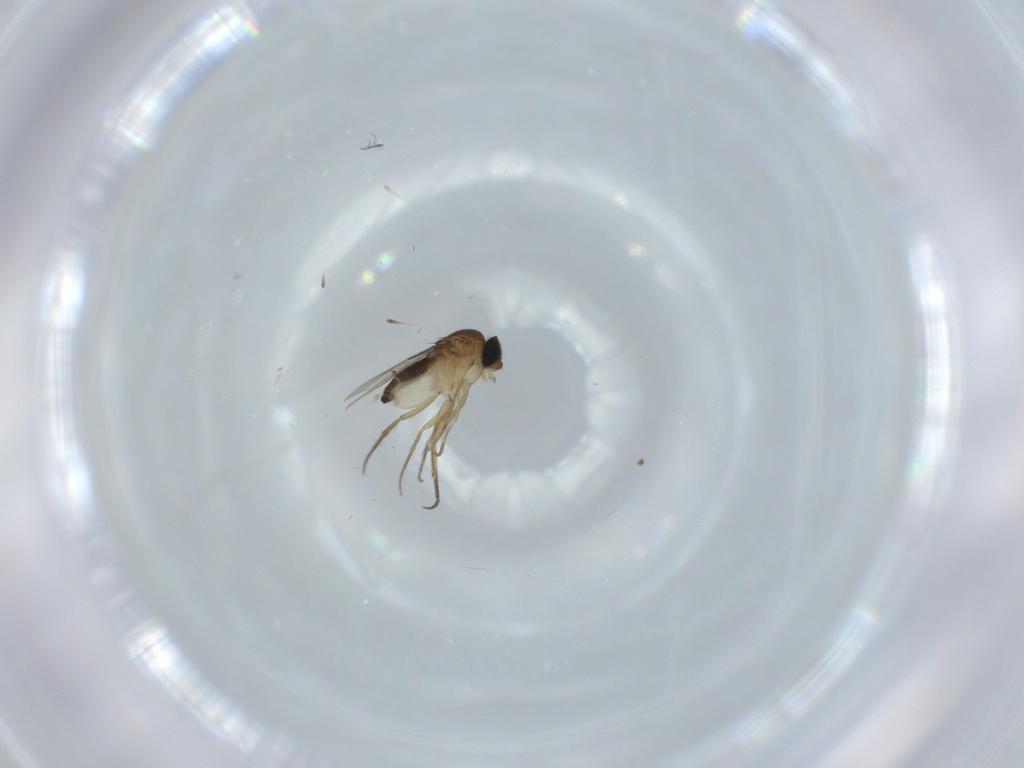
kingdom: Animalia
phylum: Arthropoda
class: Insecta
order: Diptera
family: Phoridae
